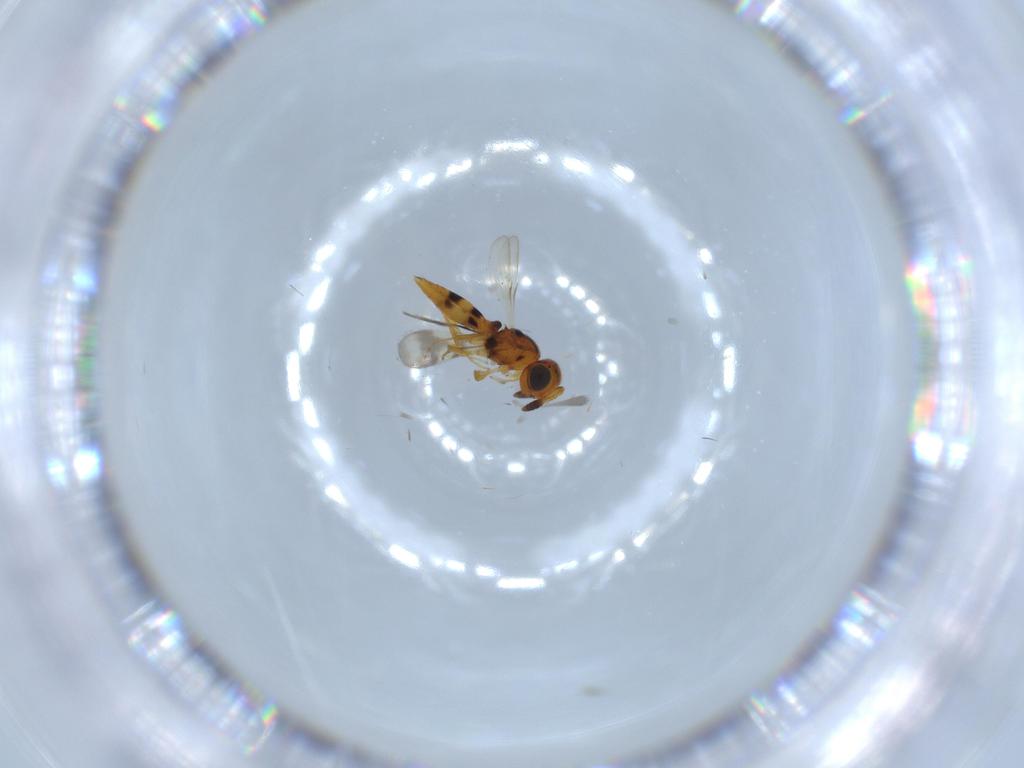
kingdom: Animalia
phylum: Arthropoda
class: Insecta
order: Hymenoptera
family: Scelionidae
